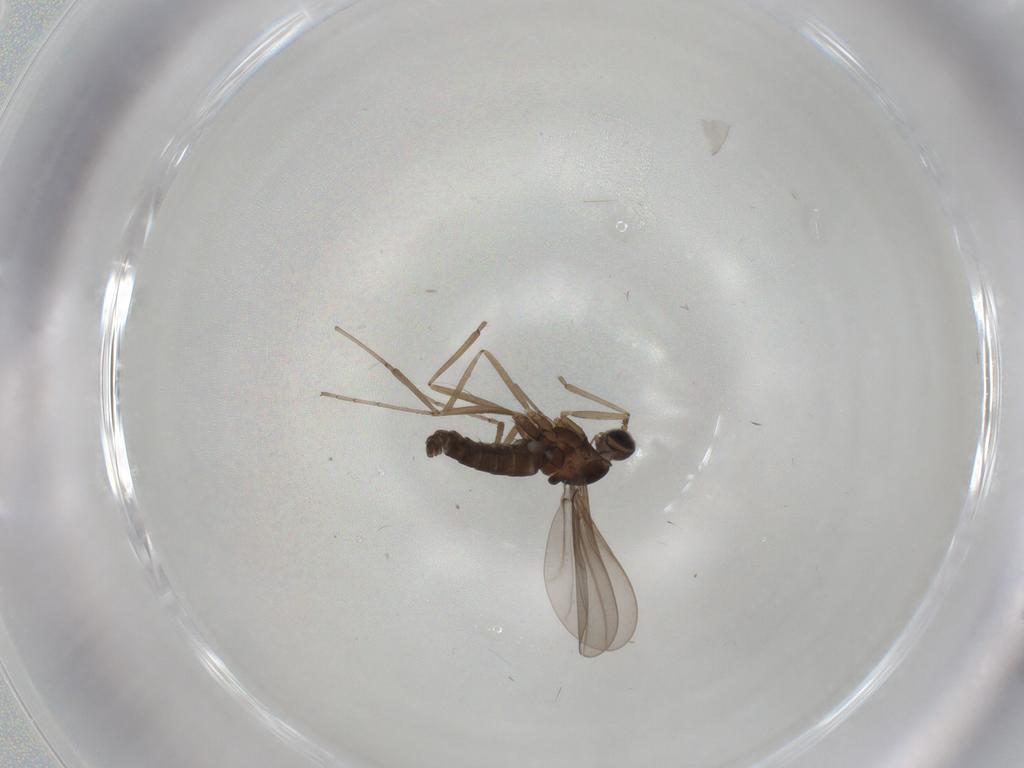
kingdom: Animalia
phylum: Arthropoda
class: Insecta
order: Diptera
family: Cecidomyiidae
